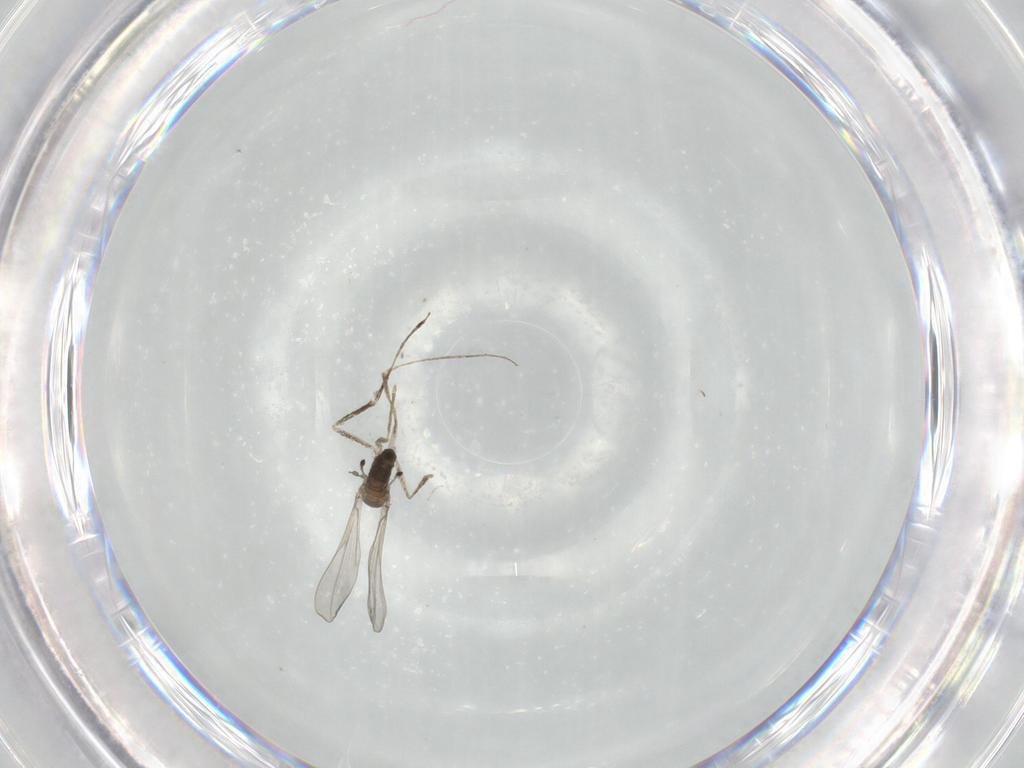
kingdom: Animalia
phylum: Arthropoda
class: Insecta
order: Diptera
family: Cecidomyiidae
